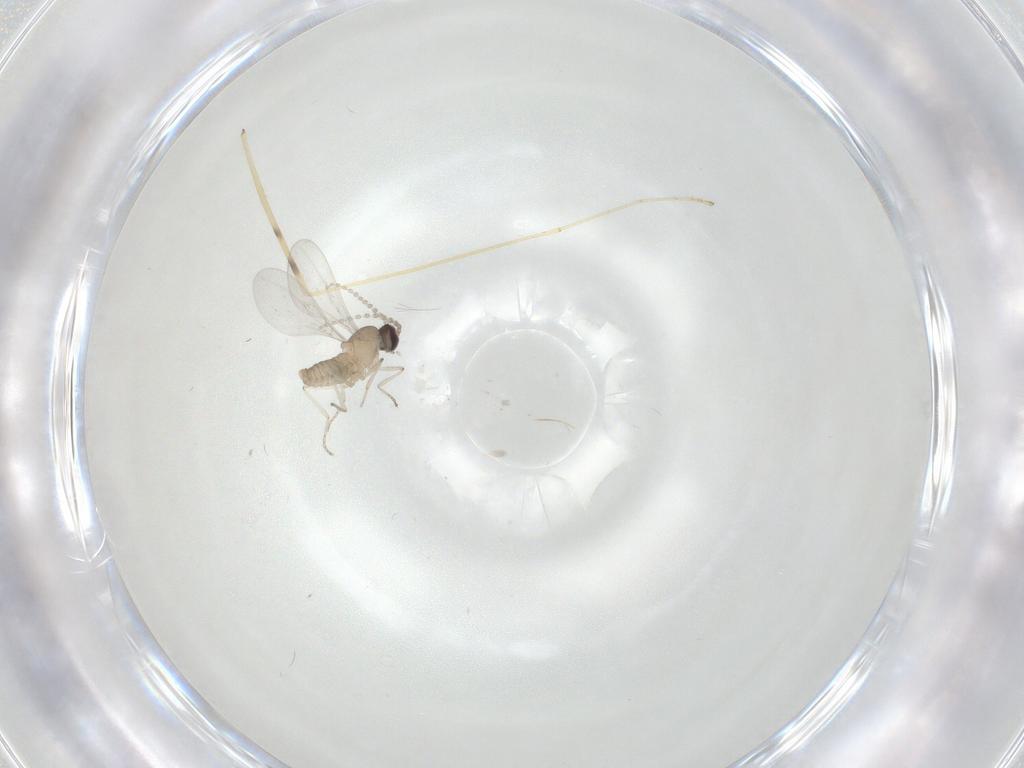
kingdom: Animalia
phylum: Arthropoda
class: Insecta
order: Diptera
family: Cecidomyiidae
